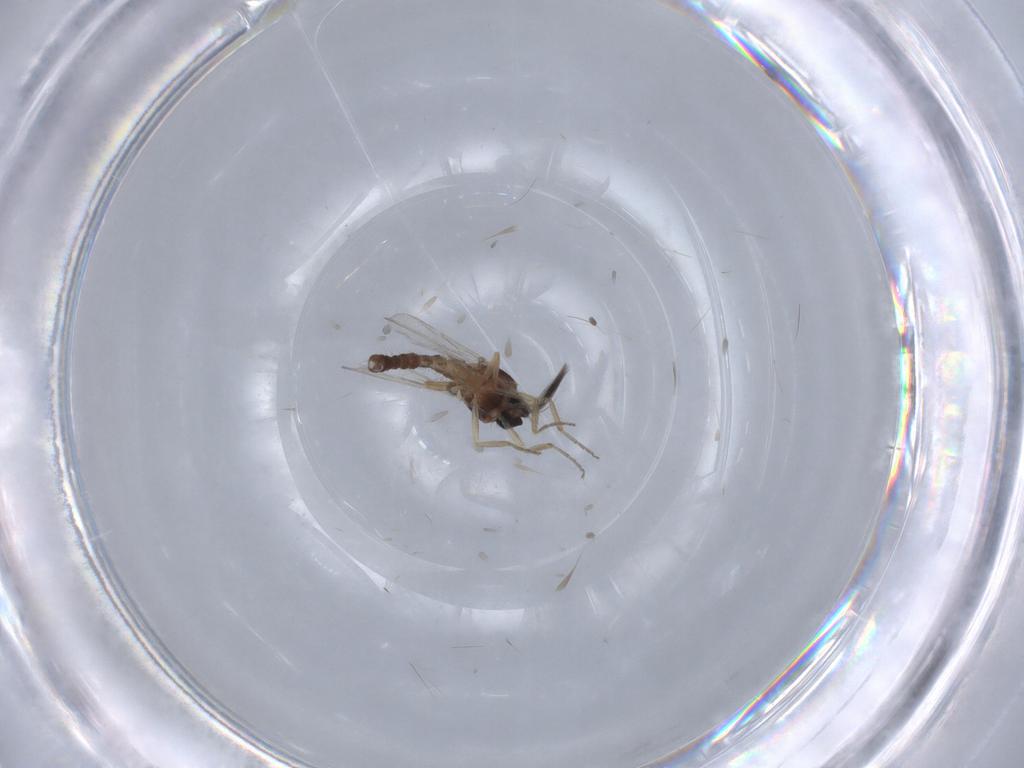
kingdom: Animalia
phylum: Arthropoda
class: Insecta
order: Diptera
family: Ceratopogonidae
